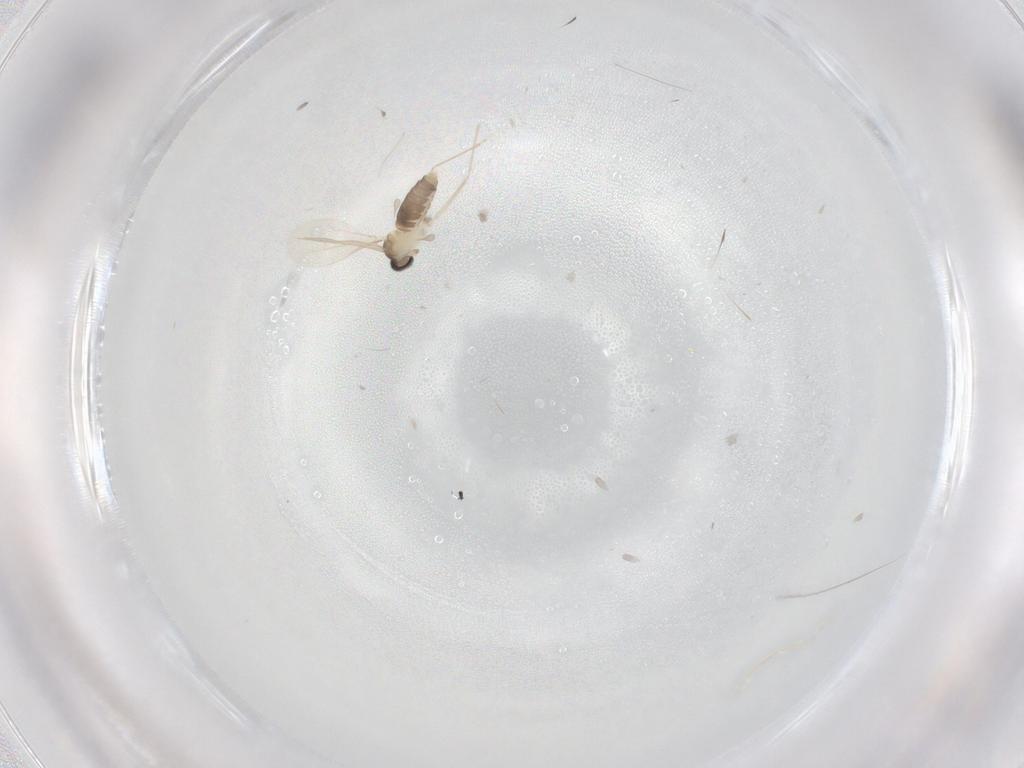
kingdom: Animalia
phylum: Arthropoda
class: Insecta
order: Diptera
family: Cecidomyiidae
